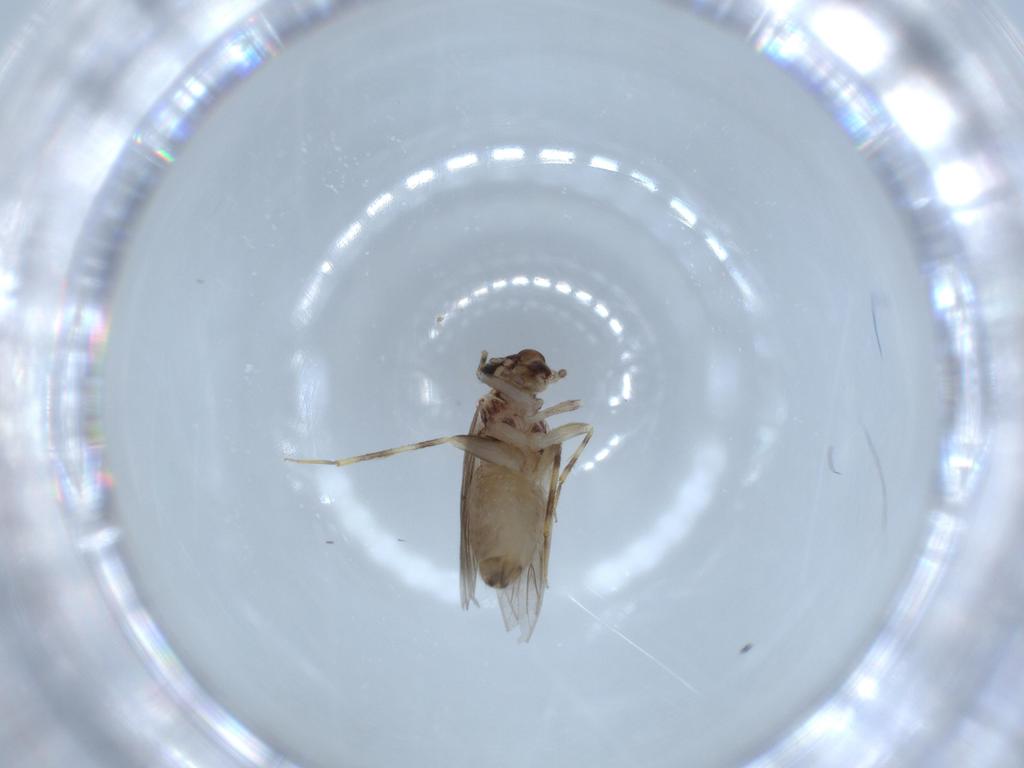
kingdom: Animalia
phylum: Arthropoda
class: Insecta
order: Psocodea
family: Lepidopsocidae
